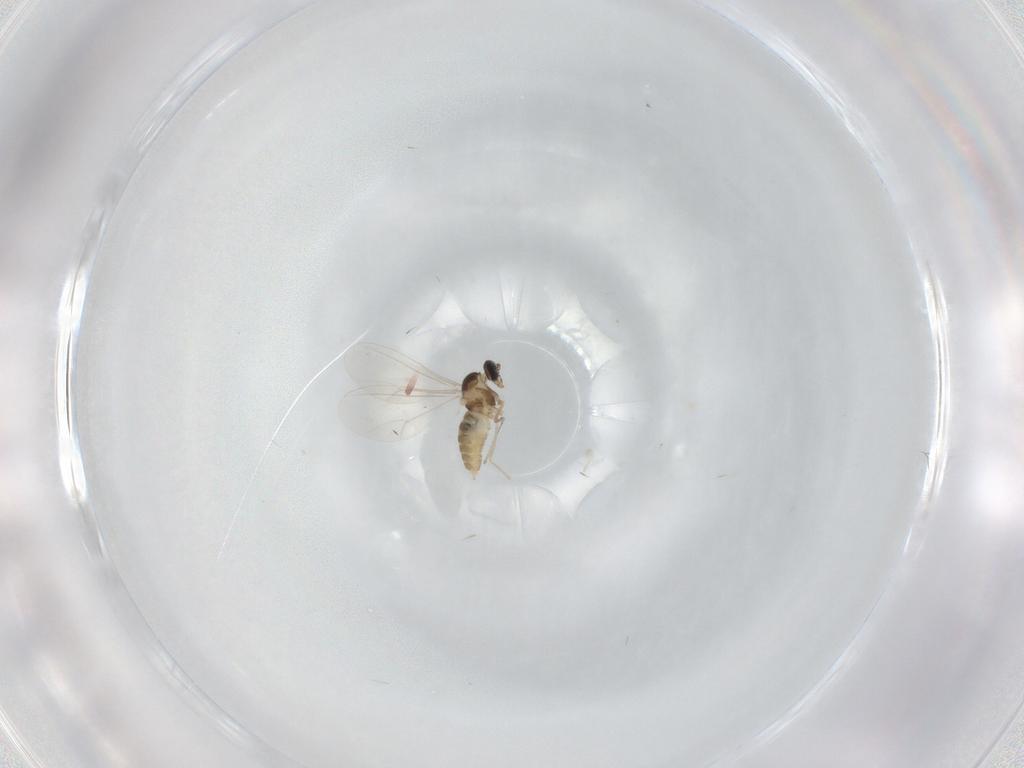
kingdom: Animalia
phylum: Arthropoda
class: Insecta
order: Diptera
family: Cecidomyiidae
